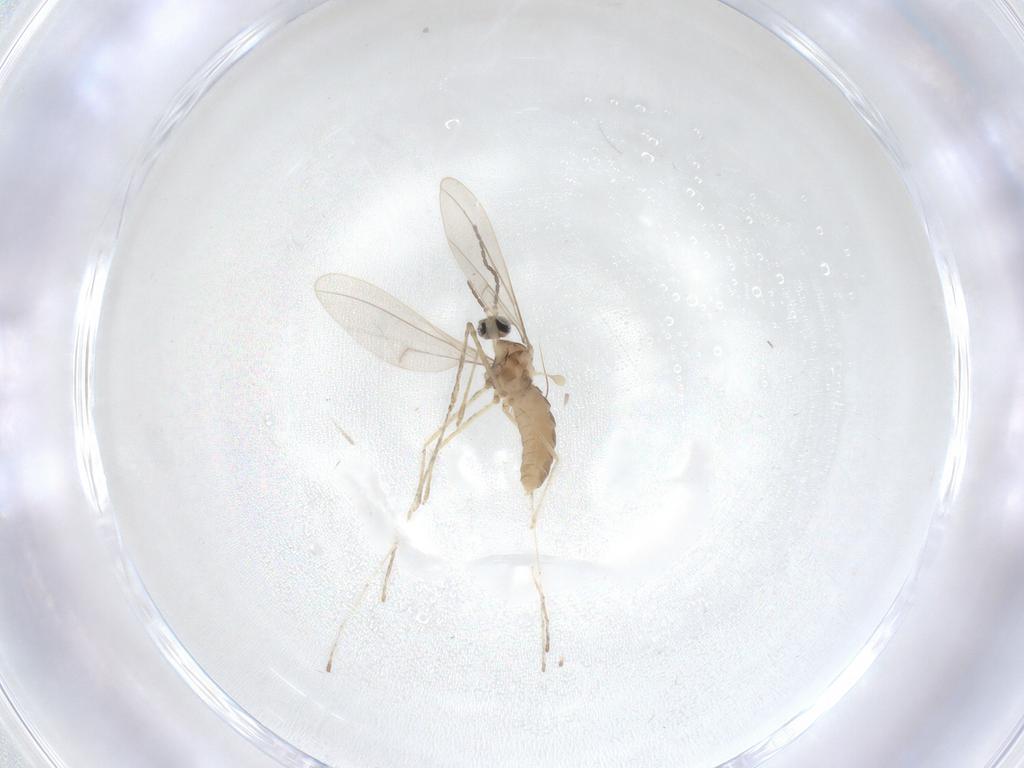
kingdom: Animalia
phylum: Arthropoda
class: Insecta
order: Diptera
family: Cecidomyiidae
